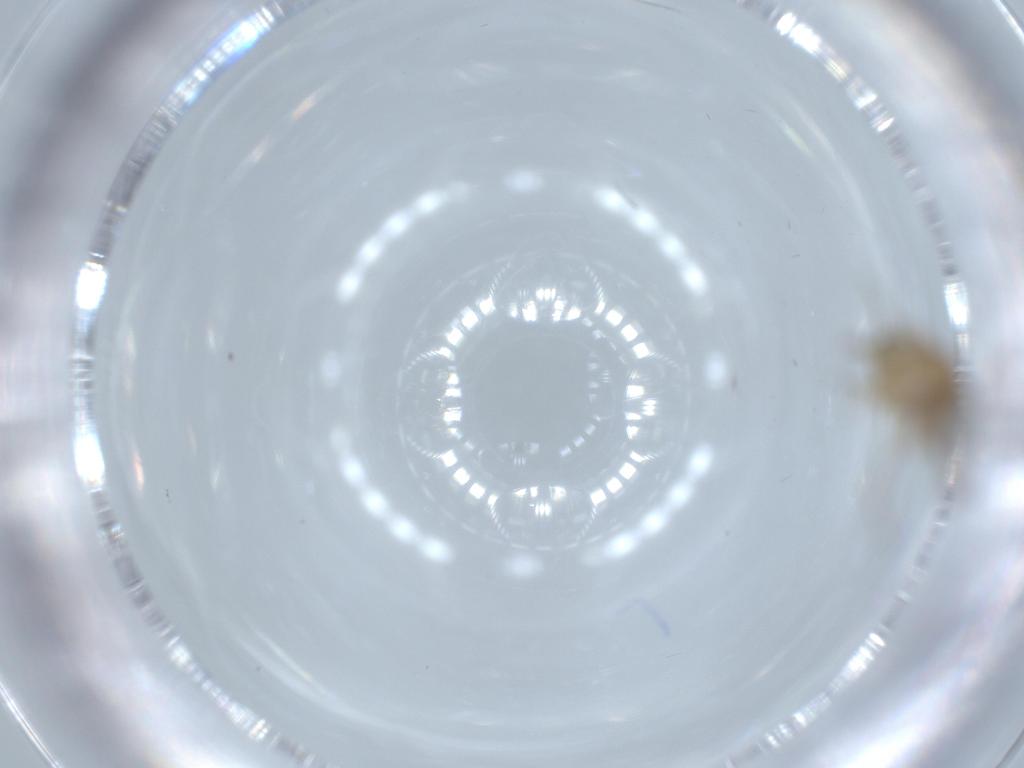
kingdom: Animalia
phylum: Arthropoda
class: Insecta
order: Diptera
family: Ceratopogonidae
